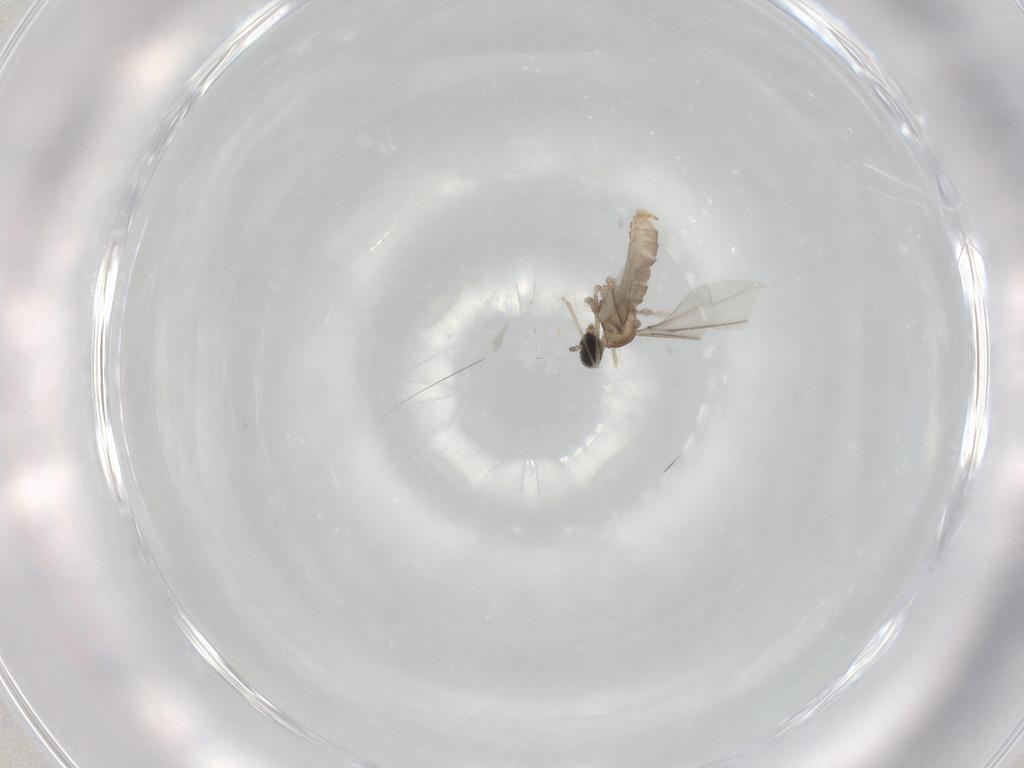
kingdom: Animalia
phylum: Arthropoda
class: Insecta
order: Diptera
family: Cecidomyiidae
